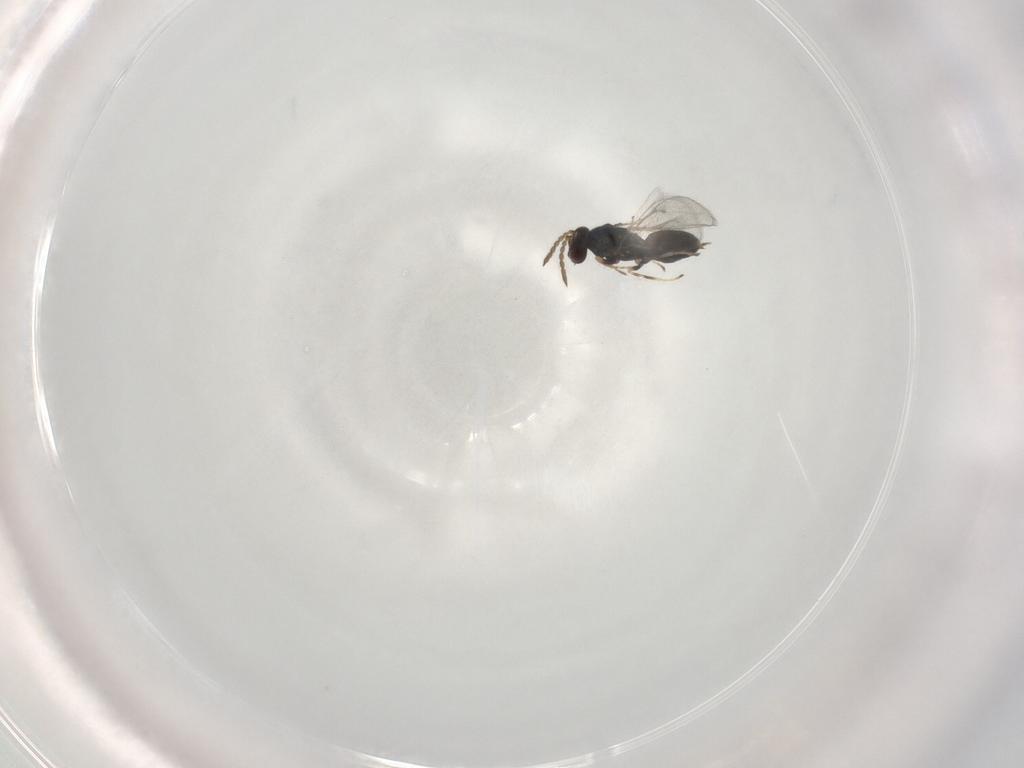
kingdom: Animalia
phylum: Arthropoda
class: Insecta
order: Hymenoptera
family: Eulophidae
